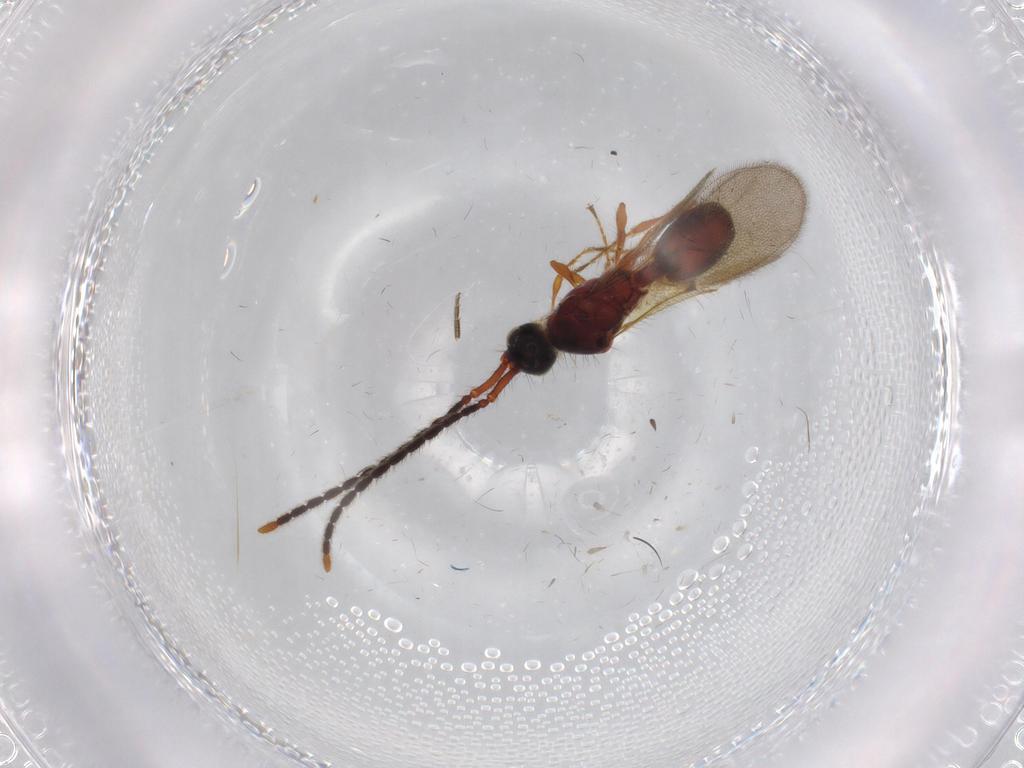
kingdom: Animalia
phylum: Arthropoda
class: Insecta
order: Hymenoptera
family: Diapriidae
